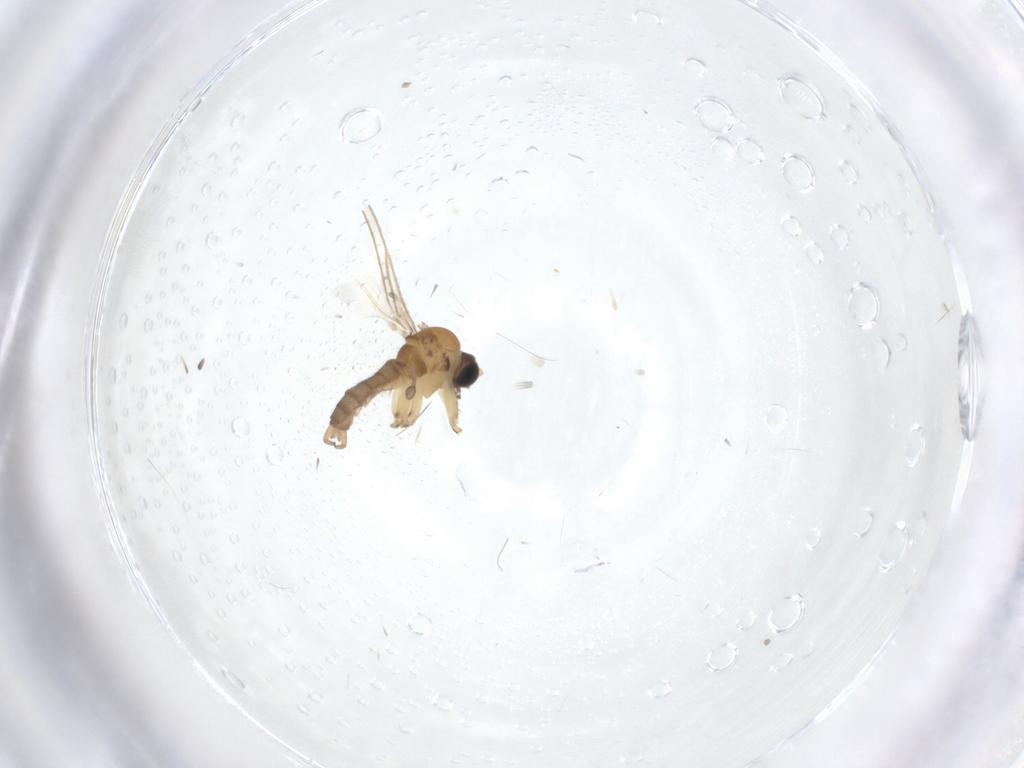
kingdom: Animalia
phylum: Arthropoda
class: Insecta
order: Diptera
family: Sciaridae
